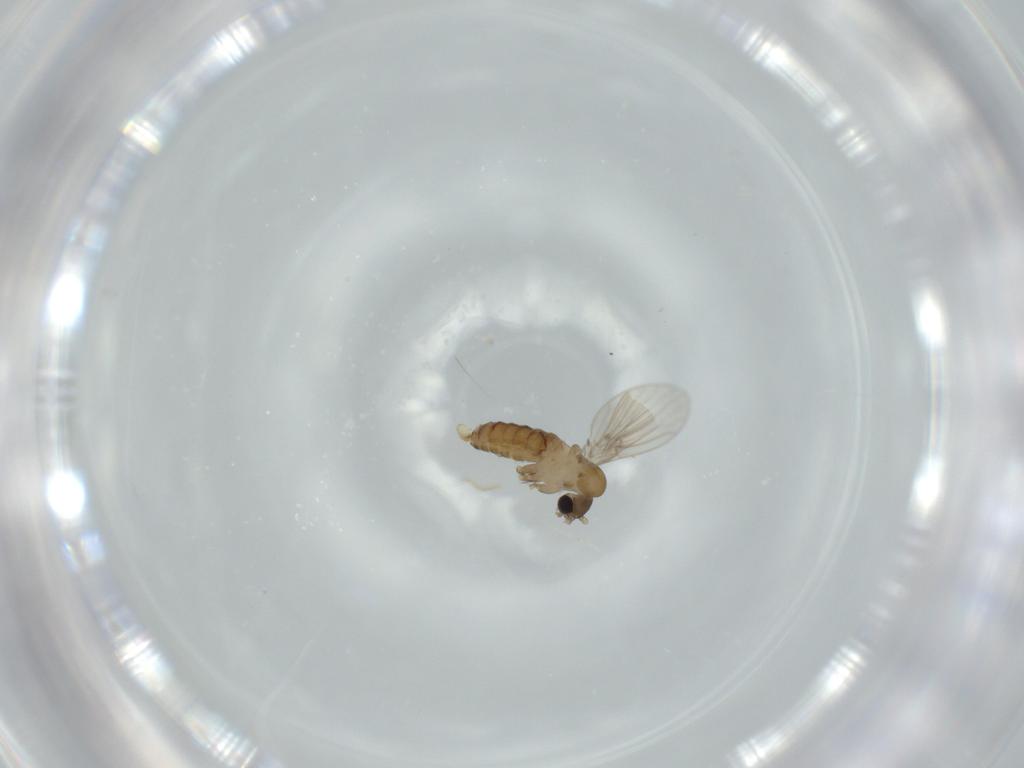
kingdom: Animalia
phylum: Arthropoda
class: Insecta
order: Diptera
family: Psychodidae
